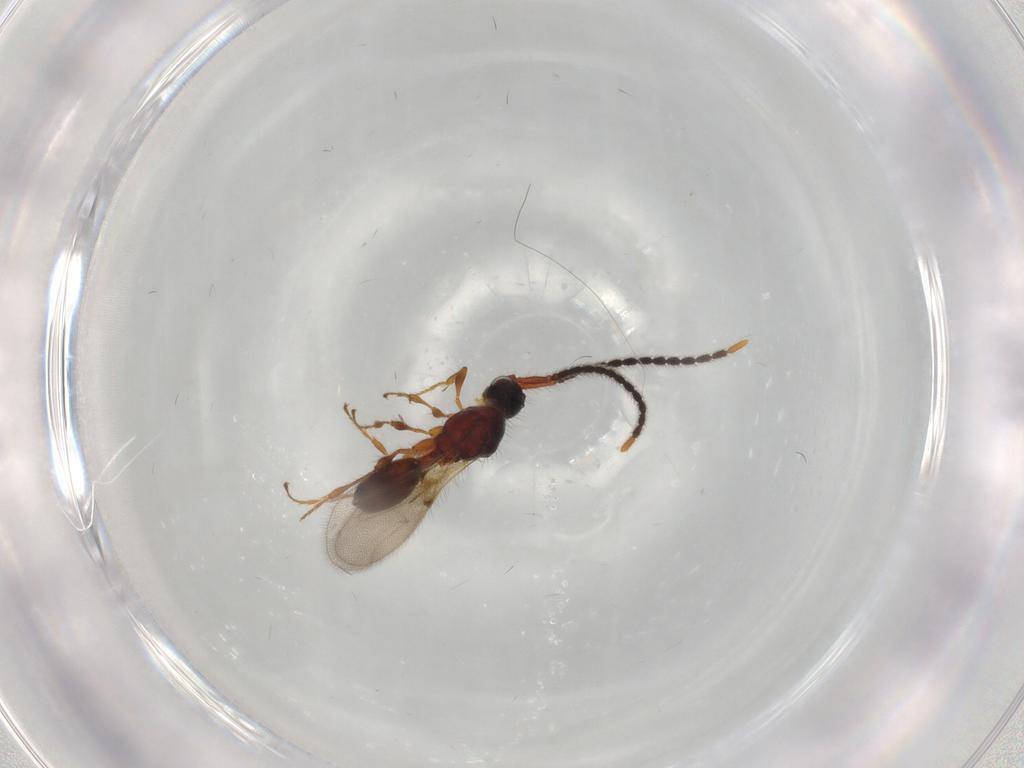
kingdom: Animalia
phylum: Arthropoda
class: Insecta
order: Hymenoptera
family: Diapriidae
